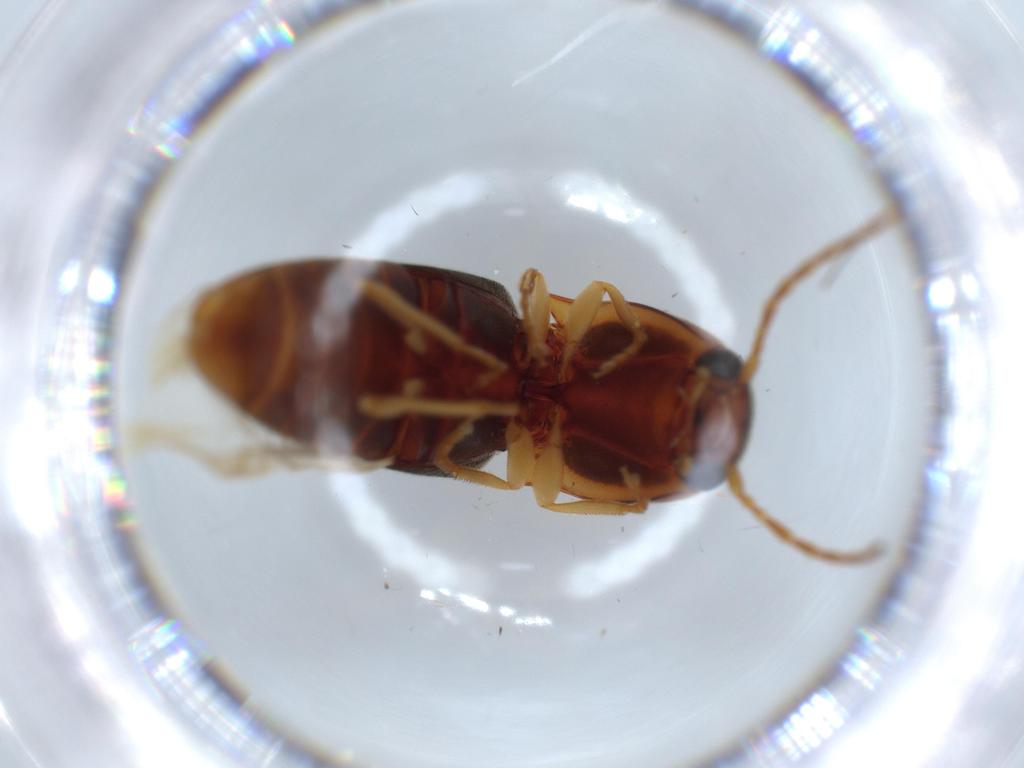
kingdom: Animalia
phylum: Arthropoda
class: Insecta
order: Coleoptera
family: Elateridae
